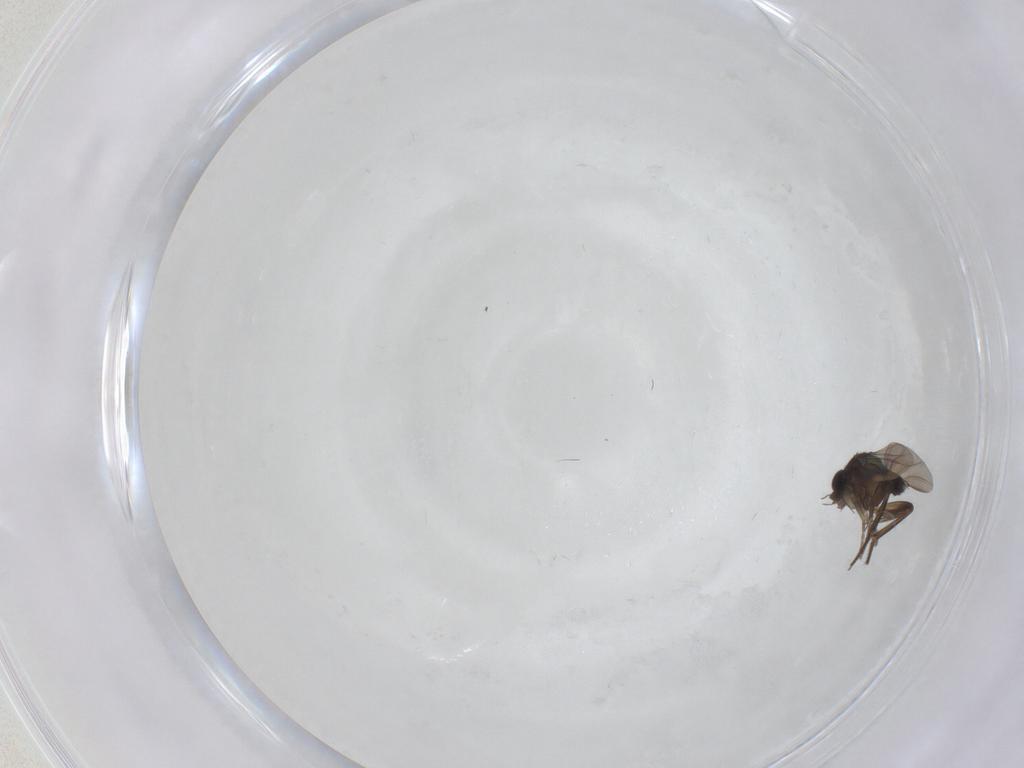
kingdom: Animalia
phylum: Arthropoda
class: Insecta
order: Diptera
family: Phoridae
